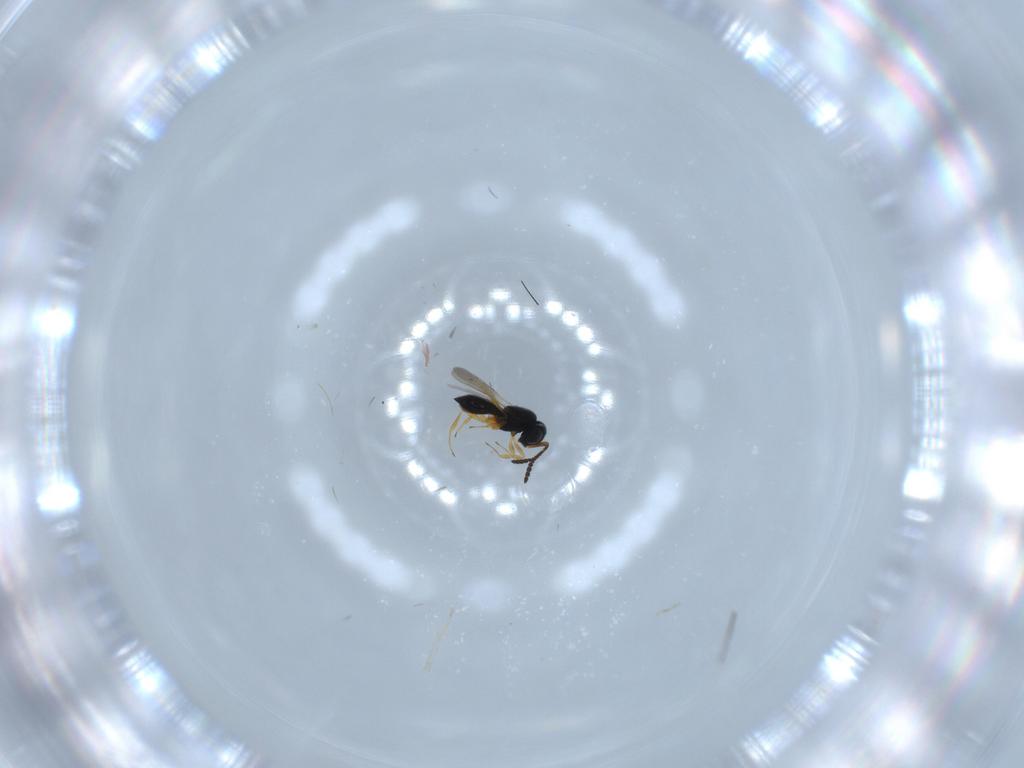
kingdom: Animalia
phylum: Arthropoda
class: Insecta
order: Hymenoptera
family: Scelionidae
